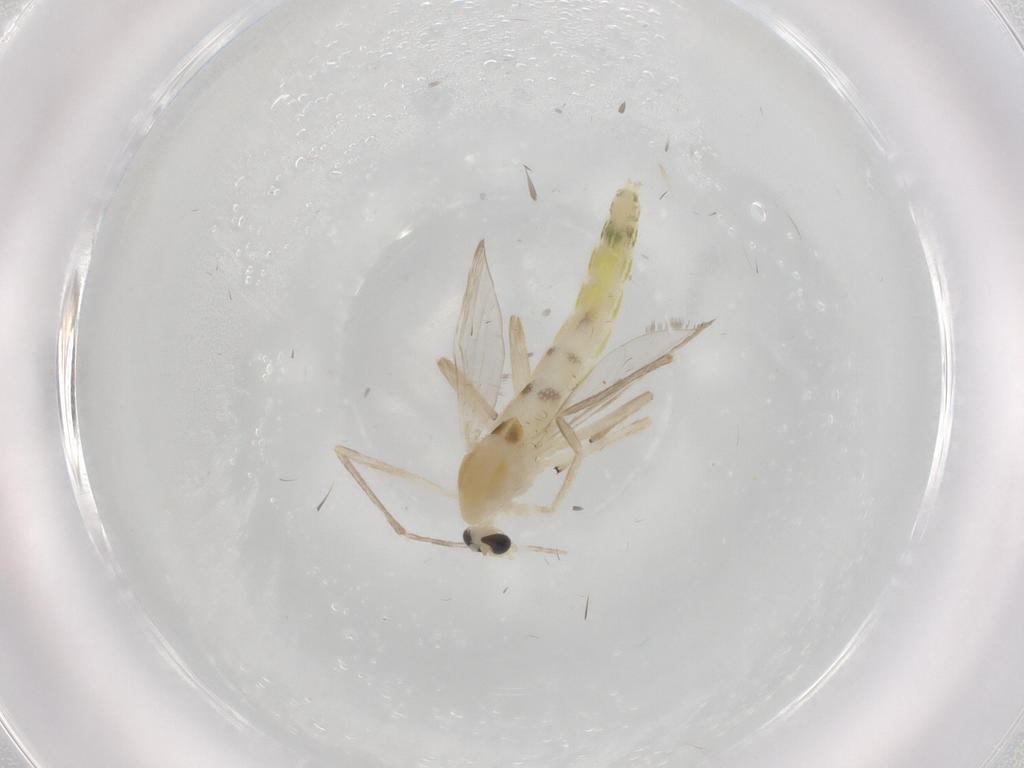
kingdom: Animalia
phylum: Arthropoda
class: Insecta
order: Diptera
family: Chironomidae
